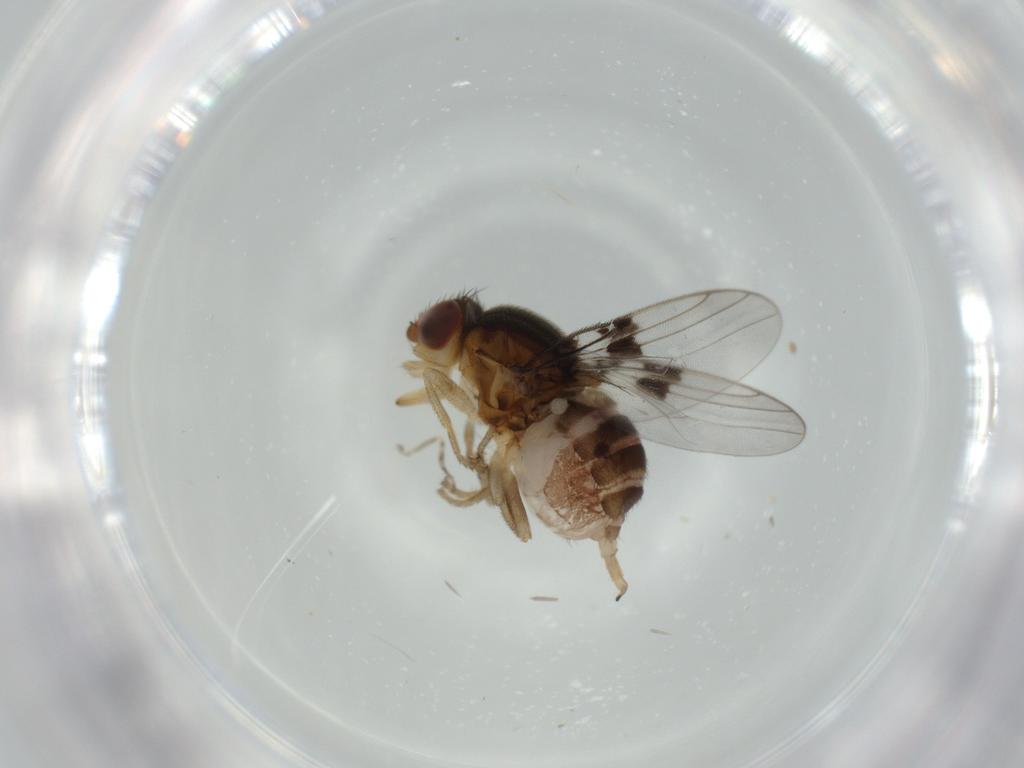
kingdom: Animalia
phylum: Arthropoda
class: Insecta
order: Diptera
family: Chloropidae
